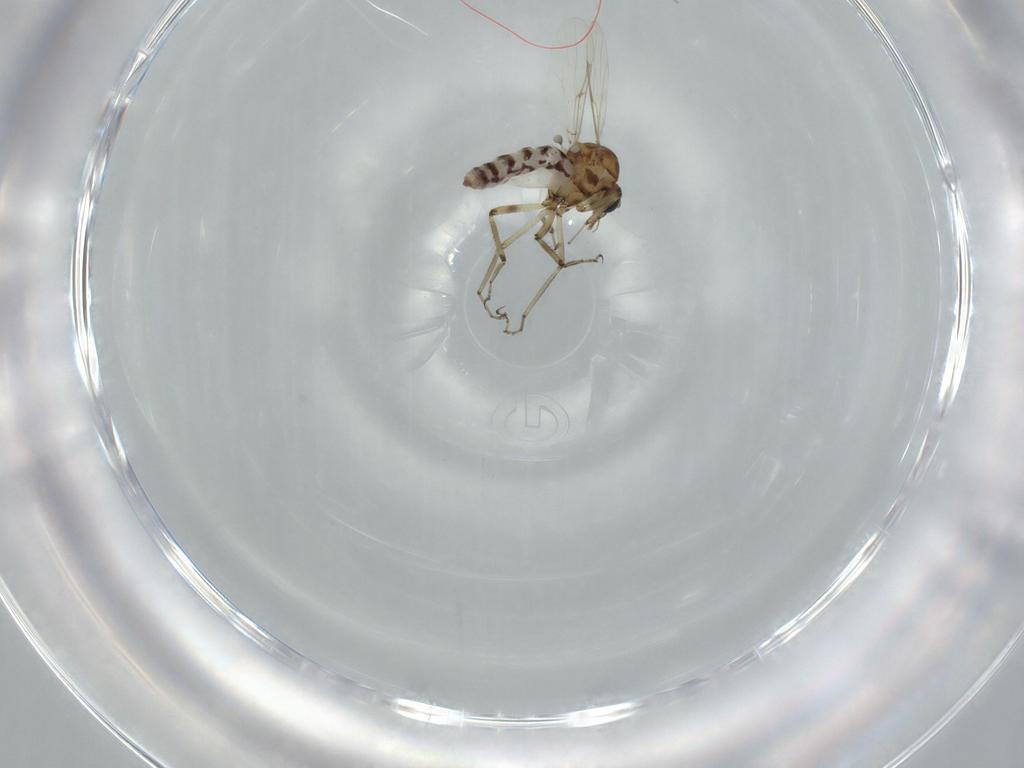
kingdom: Animalia
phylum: Arthropoda
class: Insecta
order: Diptera
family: Ceratopogonidae
